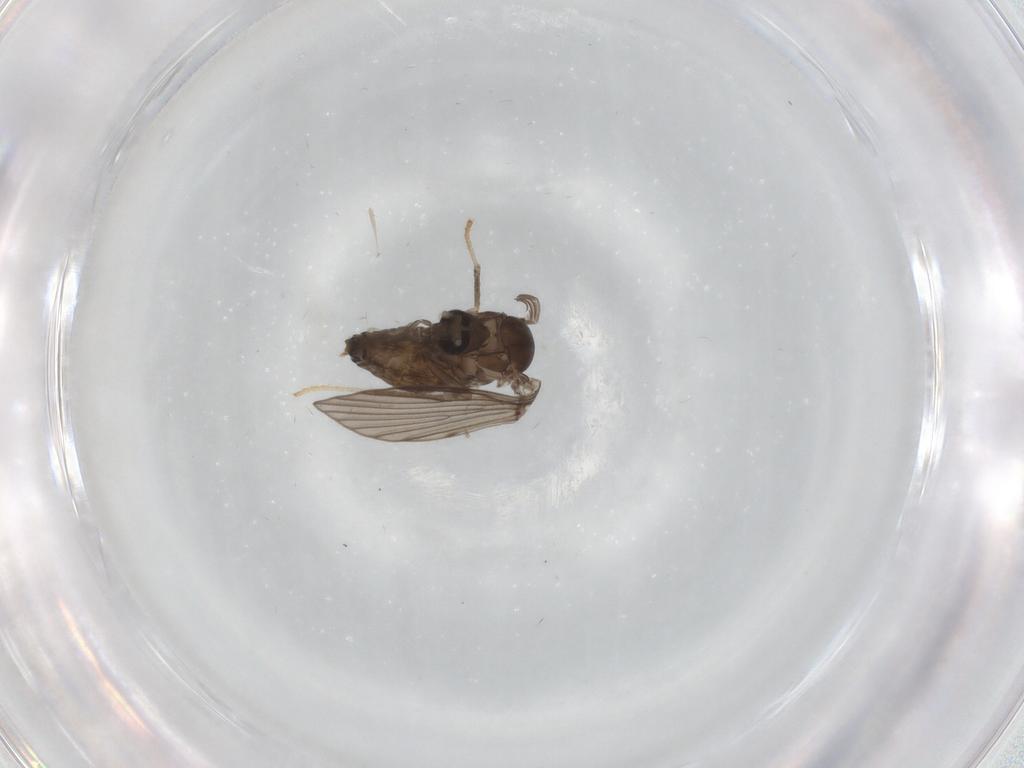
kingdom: Animalia
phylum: Arthropoda
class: Insecta
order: Diptera
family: Psychodidae
